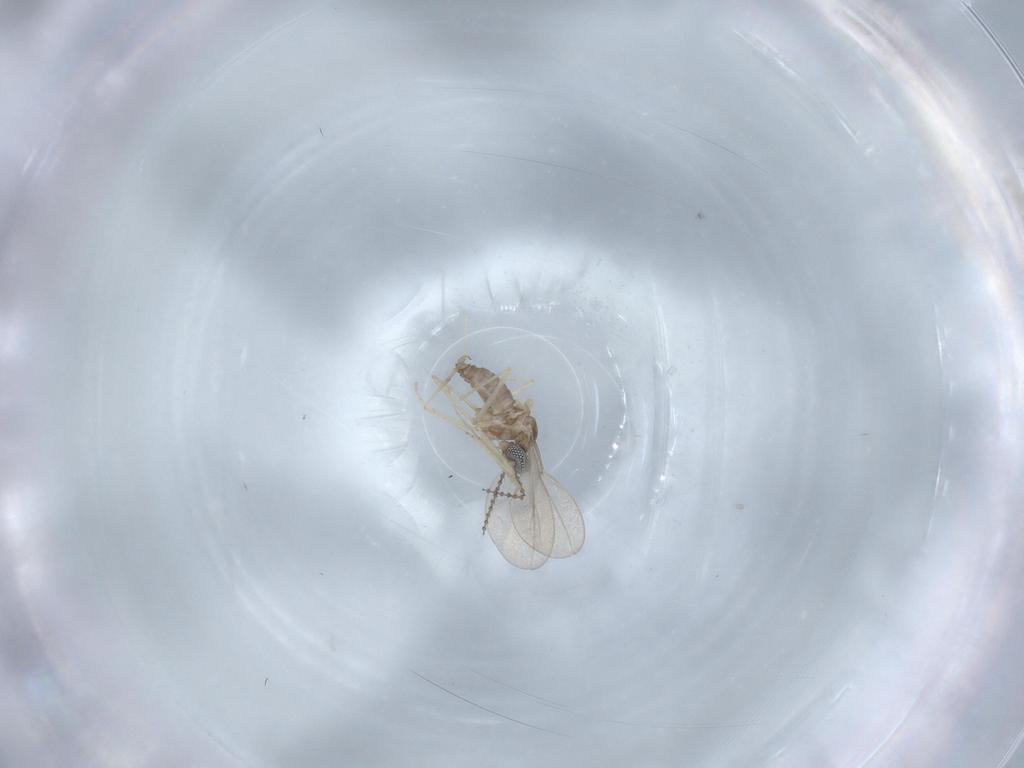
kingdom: Animalia
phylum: Arthropoda
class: Insecta
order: Diptera
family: Cecidomyiidae
